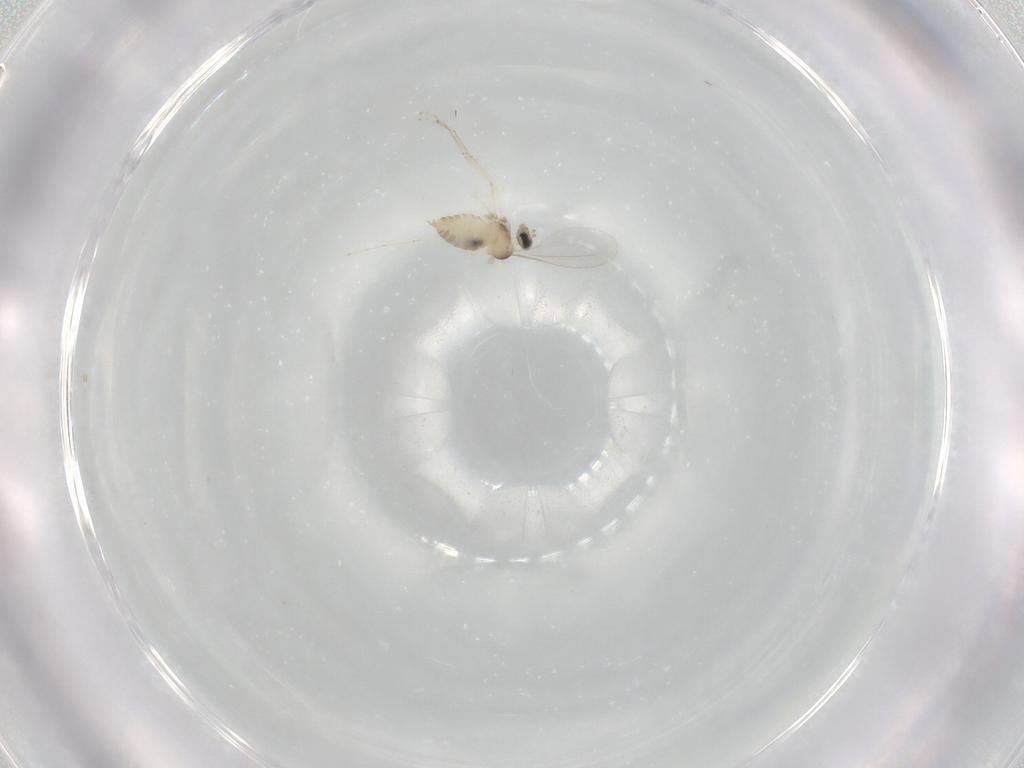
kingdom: Animalia
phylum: Arthropoda
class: Insecta
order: Diptera
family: Cecidomyiidae
